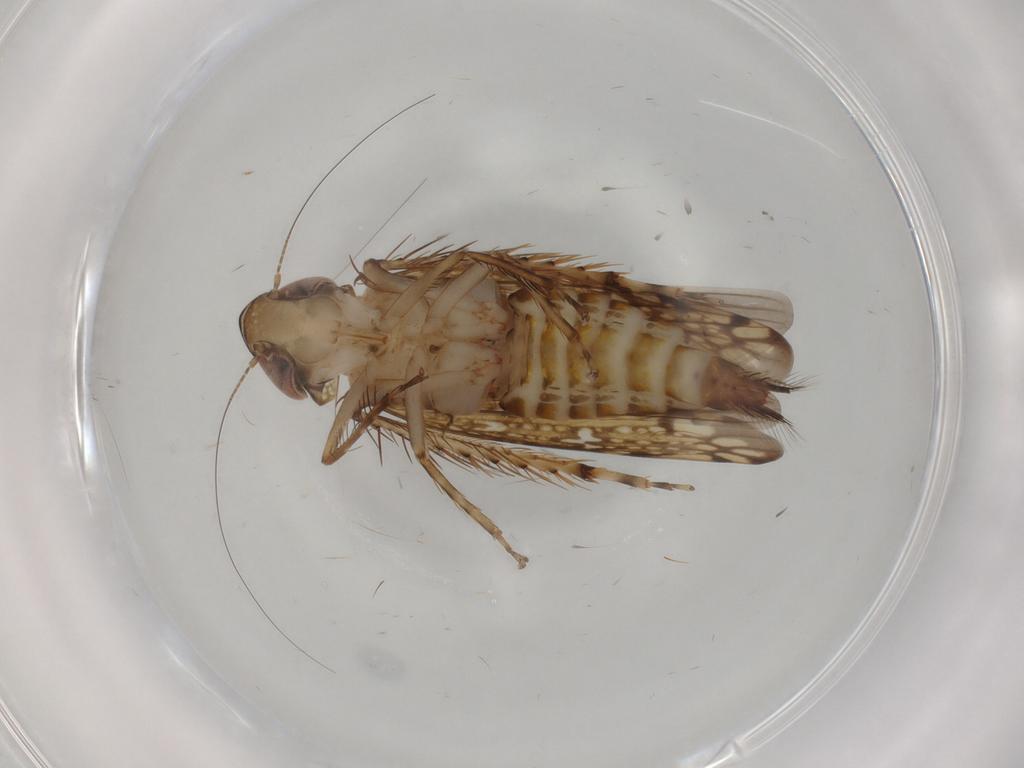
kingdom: Animalia
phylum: Arthropoda
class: Insecta
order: Hemiptera
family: Cicadellidae
